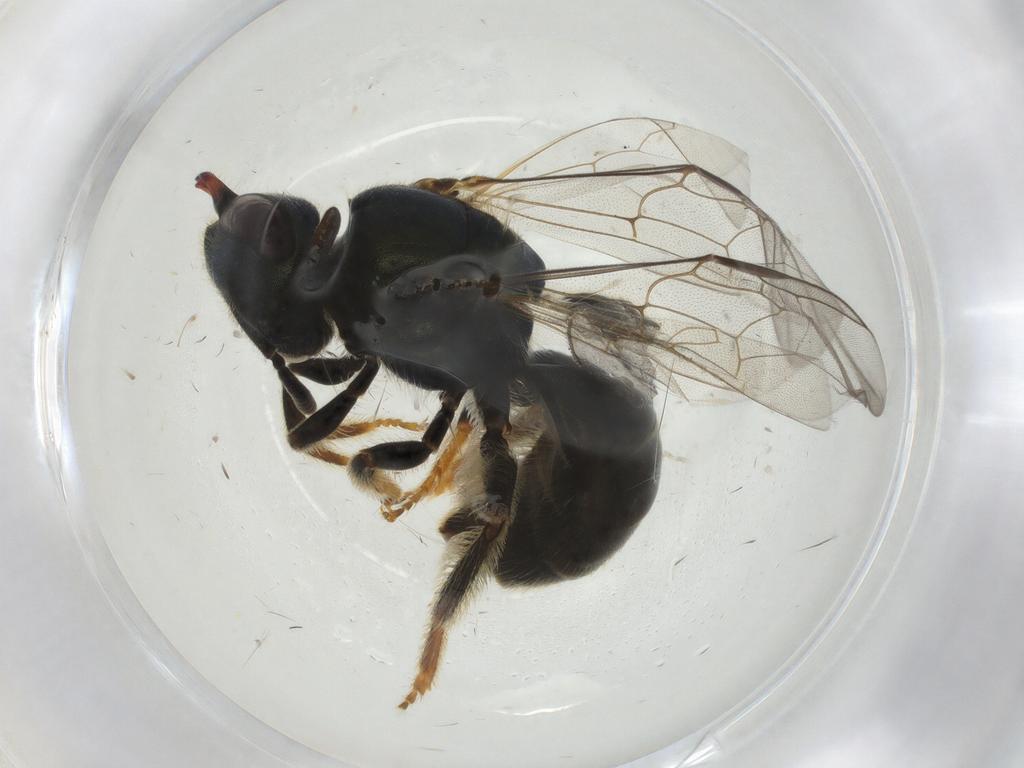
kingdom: Animalia
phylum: Arthropoda
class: Insecta
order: Hymenoptera
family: Halictidae
